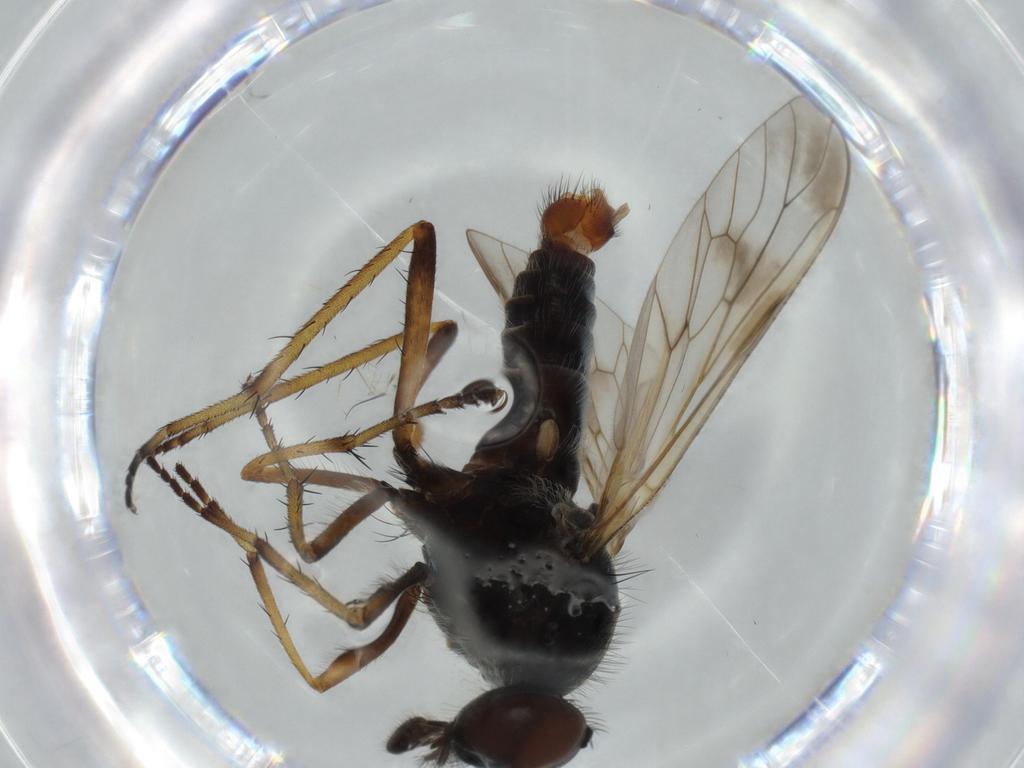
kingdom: Animalia
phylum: Arthropoda
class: Insecta
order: Diptera
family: Therevidae
